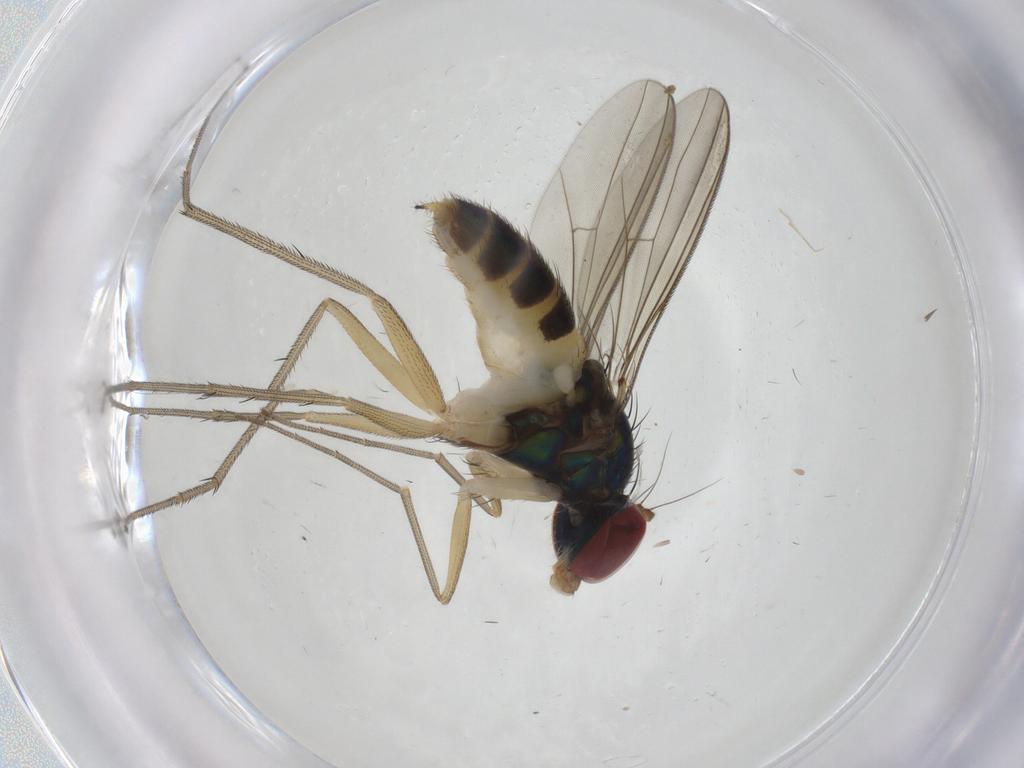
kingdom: Animalia
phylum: Arthropoda
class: Insecta
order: Diptera
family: Dolichopodidae
